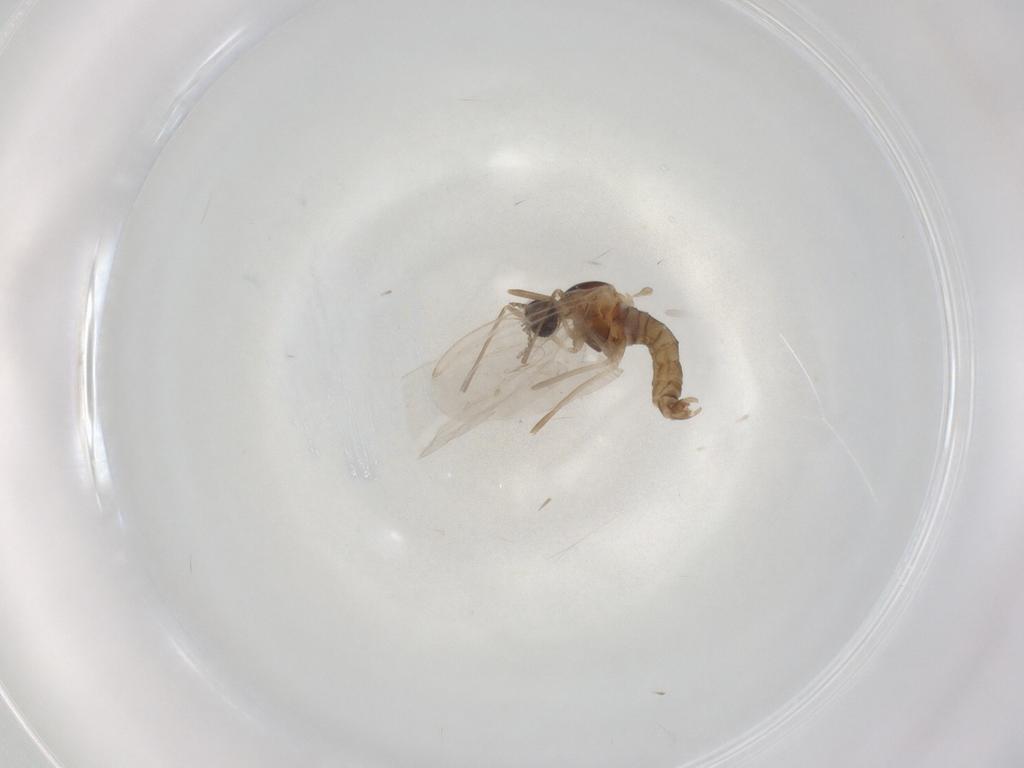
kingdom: Animalia
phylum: Arthropoda
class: Insecta
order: Diptera
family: Cecidomyiidae
